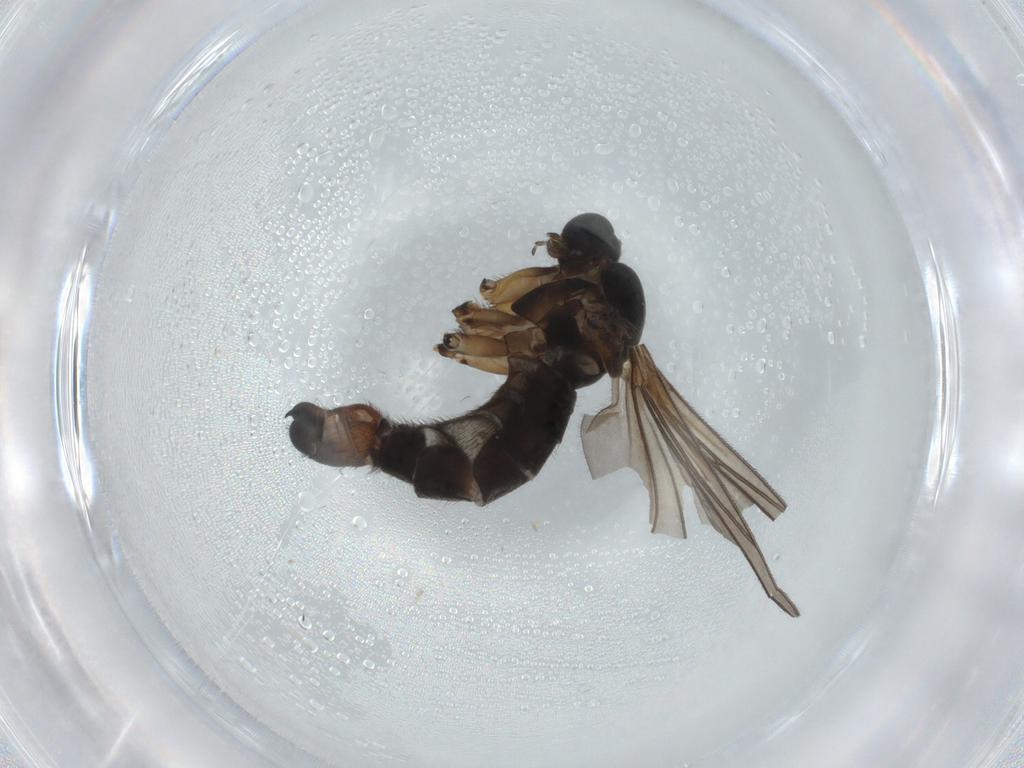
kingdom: Animalia
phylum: Arthropoda
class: Insecta
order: Diptera
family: Sciaridae
